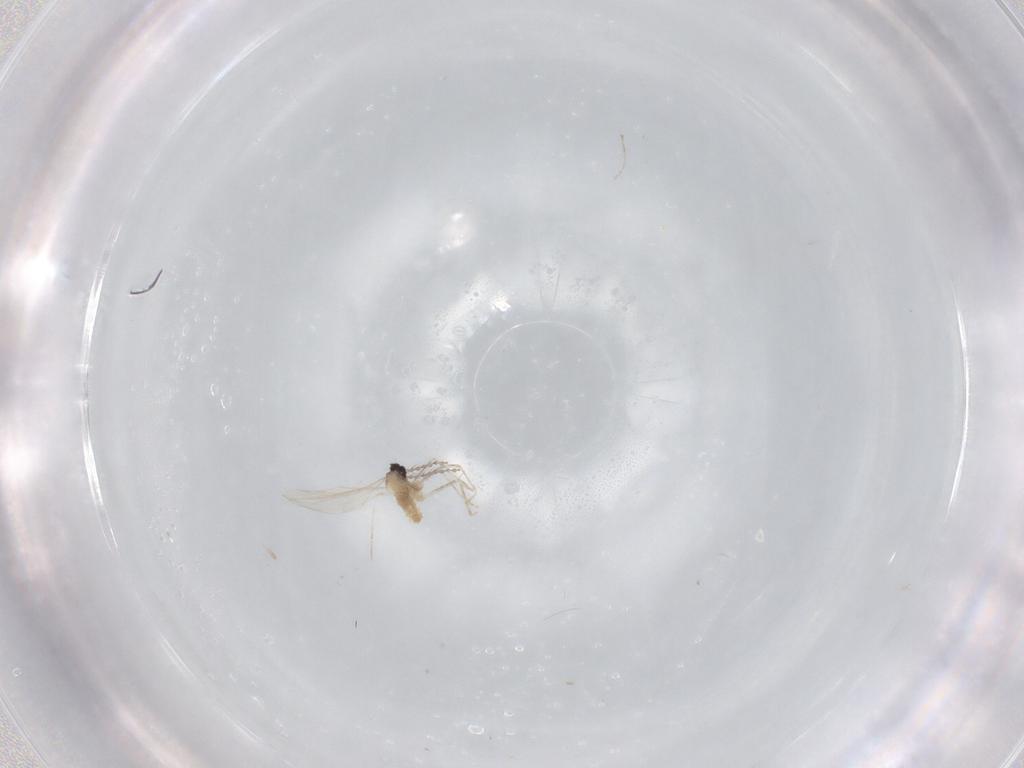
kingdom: Animalia
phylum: Arthropoda
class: Insecta
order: Diptera
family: Cecidomyiidae
